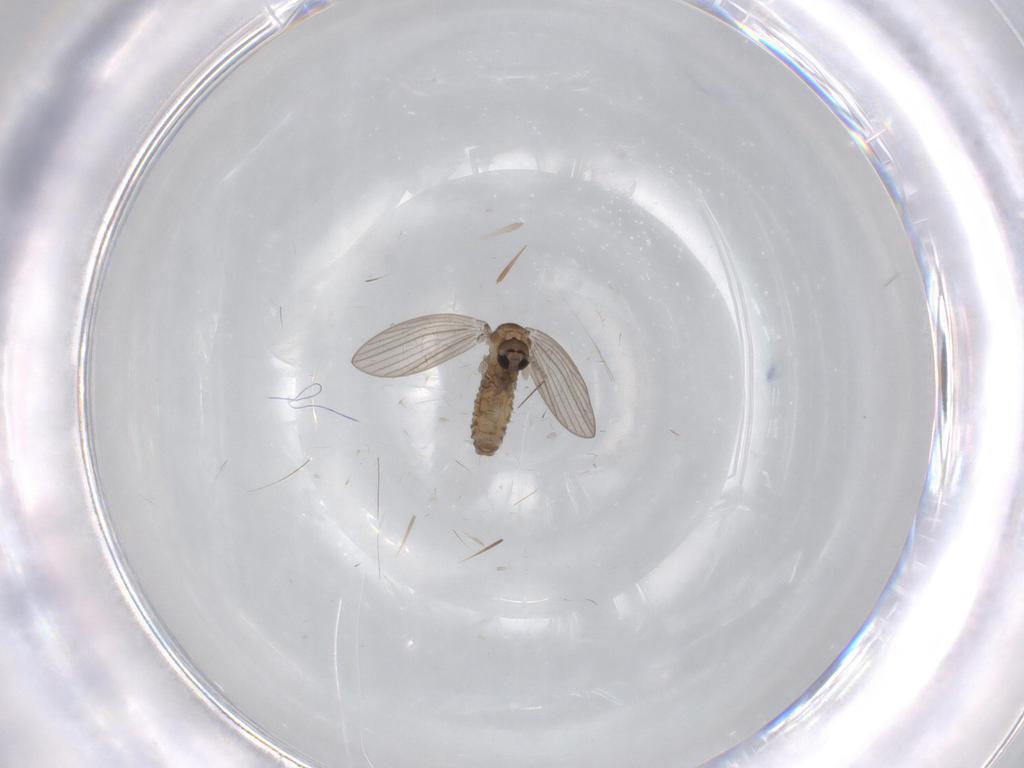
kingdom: Animalia
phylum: Arthropoda
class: Insecta
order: Diptera
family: Psychodidae
